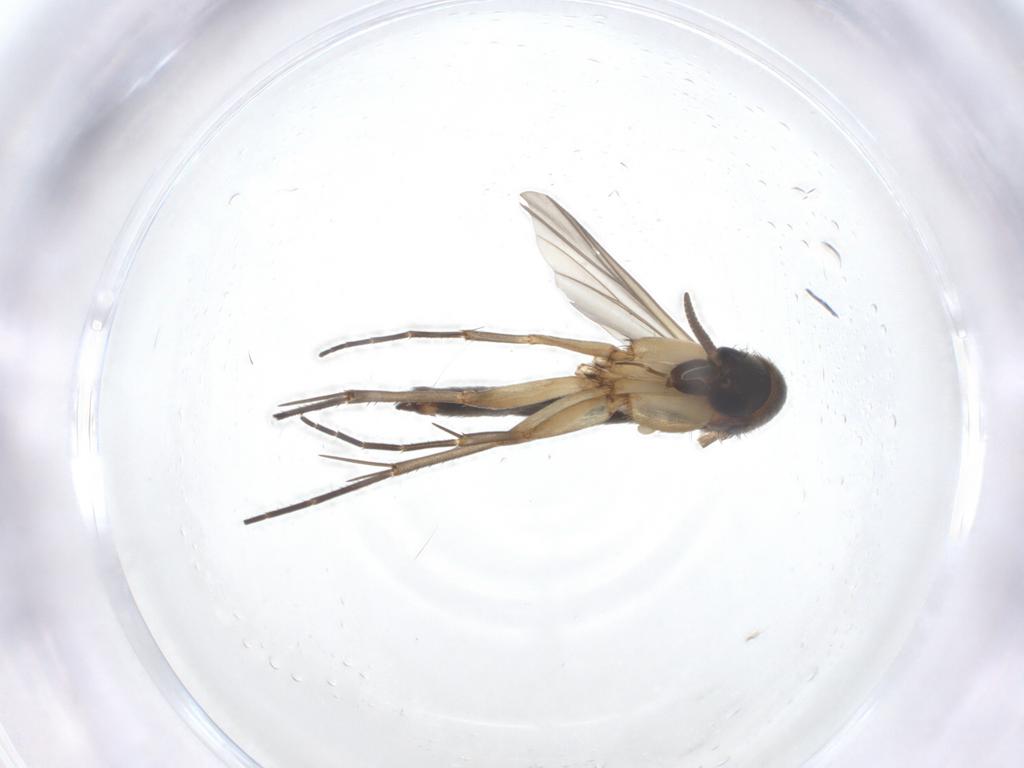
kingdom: Animalia
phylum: Arthropoda
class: Insecta
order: Diptera
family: Mycetophilidae
